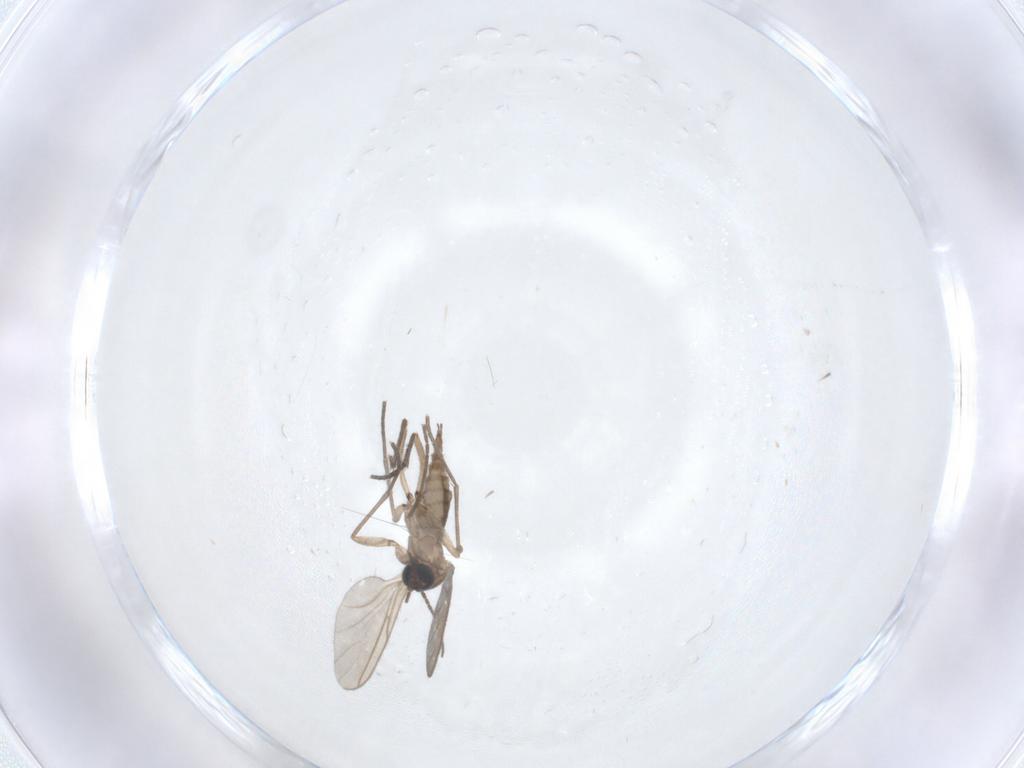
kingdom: Animalia
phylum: Arthropoda
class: Insecta
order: Diptera
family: Sciaridae
